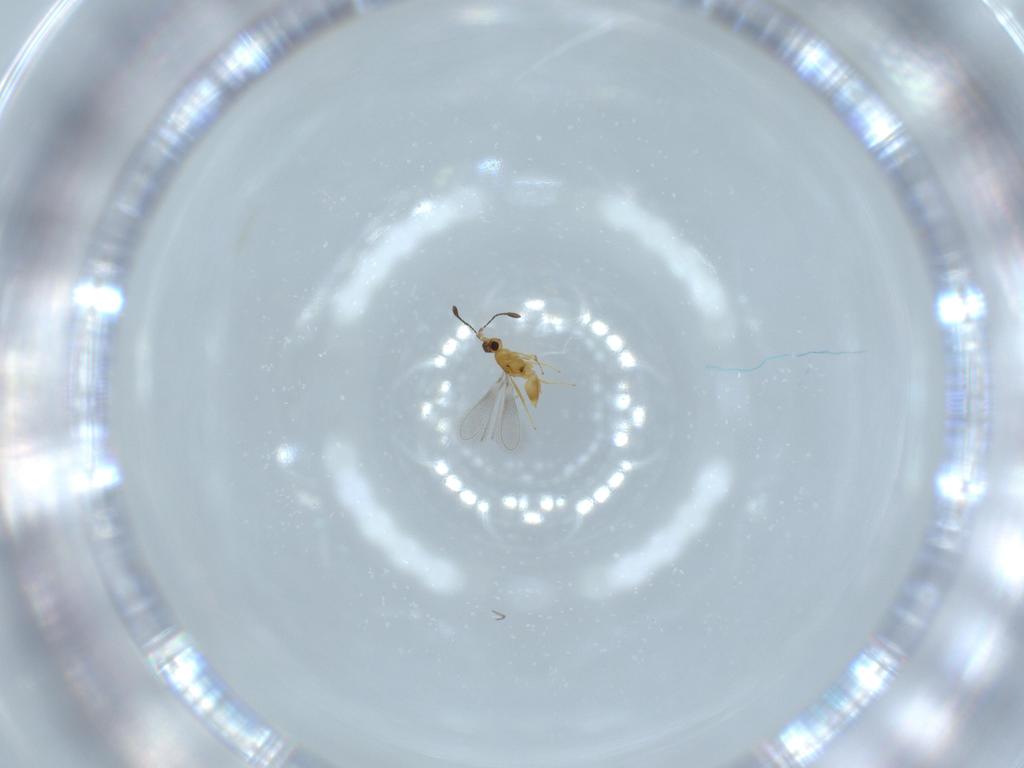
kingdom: Animalia
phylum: Arthropoda
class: Insecta
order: Hymenoptera
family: Mymaridae
